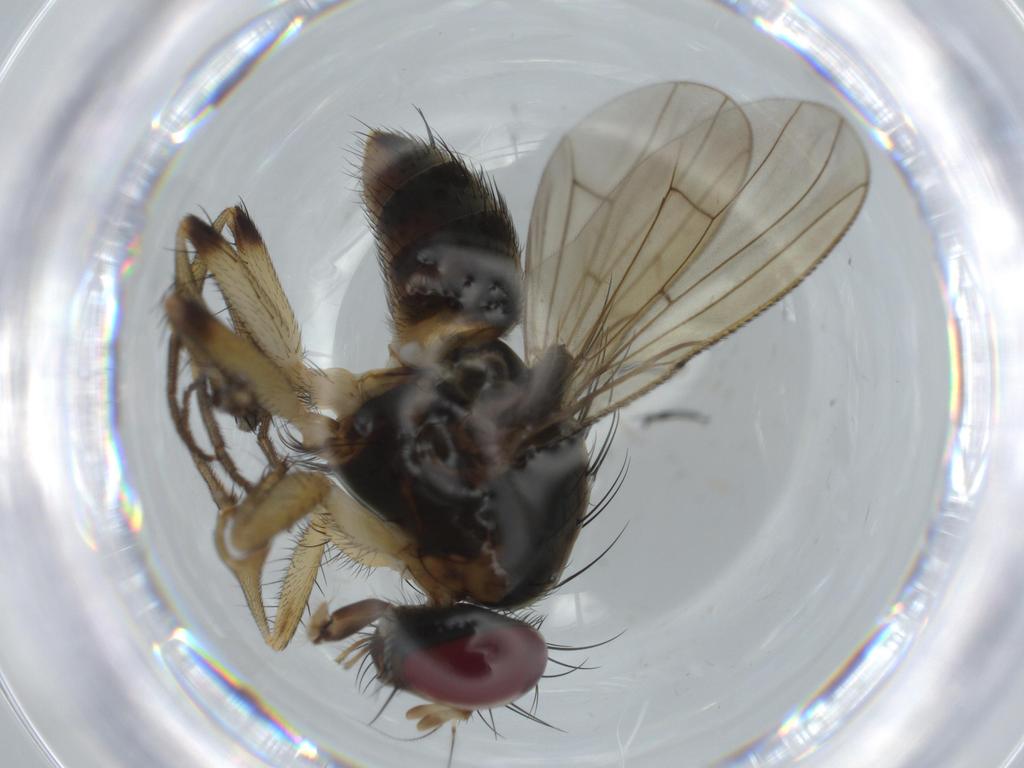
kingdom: Animalia
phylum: Arthropoda
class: Insecta
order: Diptera
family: Muscidae
